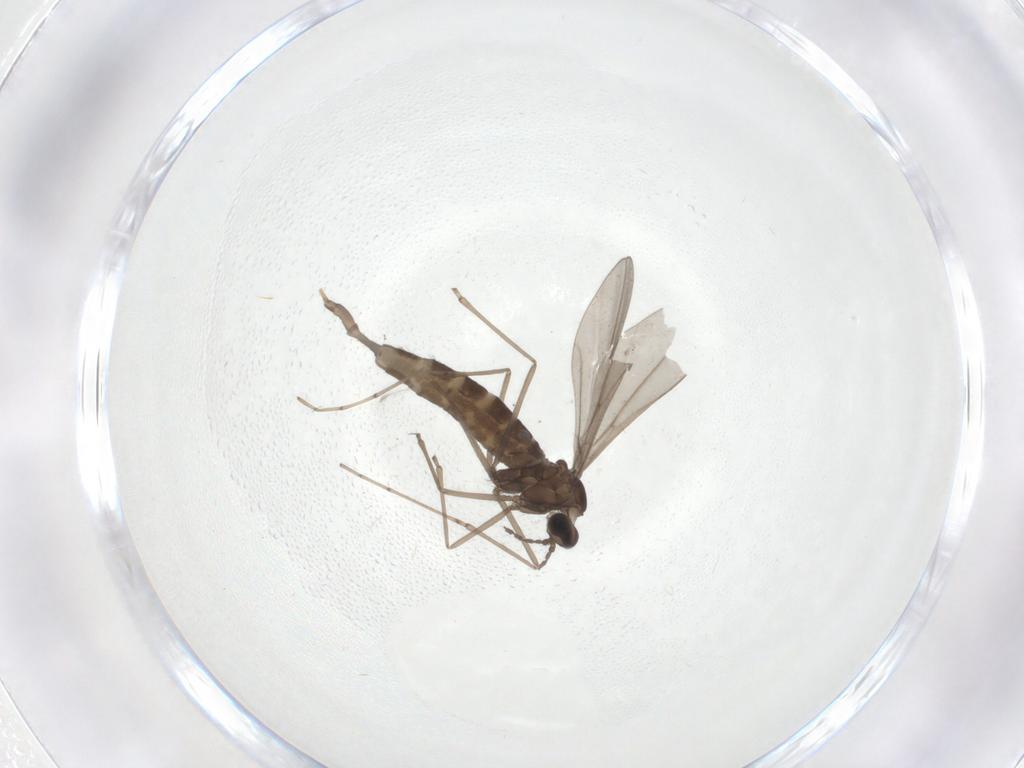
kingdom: Animalia
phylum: Arthropoda
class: Insecta
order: Diptera
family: Cecidomyiidae
